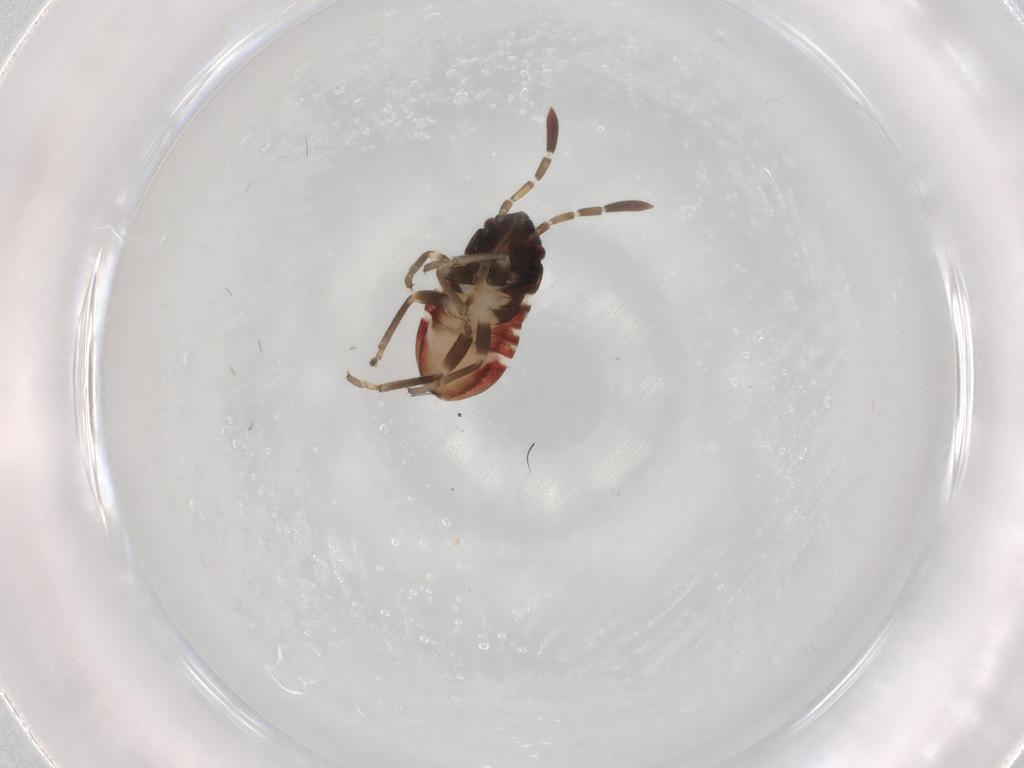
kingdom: Animalia
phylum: Arthropoda
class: Insecta
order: Hemiptera
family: Rhyparochromidae
